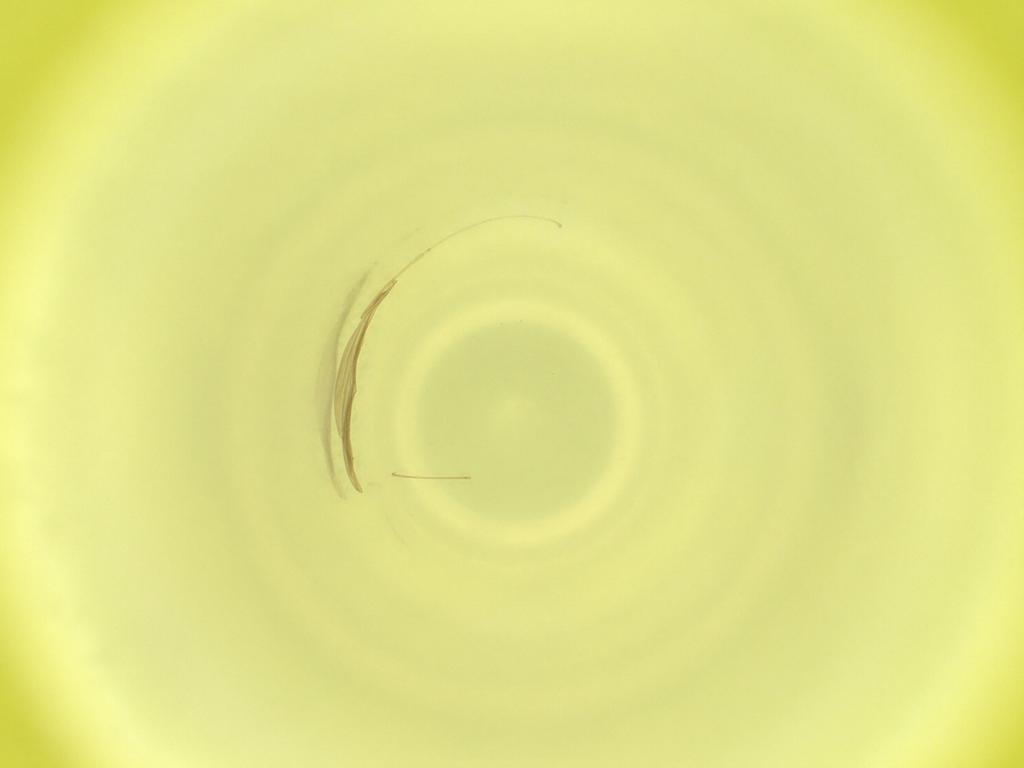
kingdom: Animalia
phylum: Arthropoda
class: Insecta
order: Diptera
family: Cecidomyiidae
